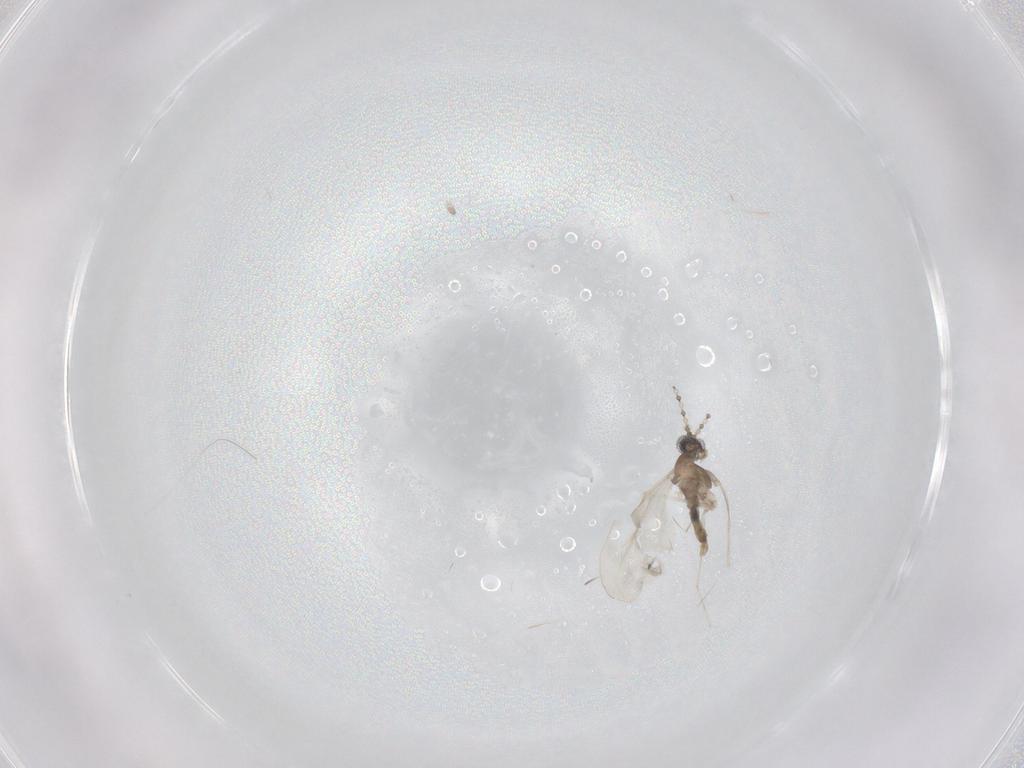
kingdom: Animalia
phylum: Arthropoda
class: Insecta
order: Diptera
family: Cecidomyiidae
